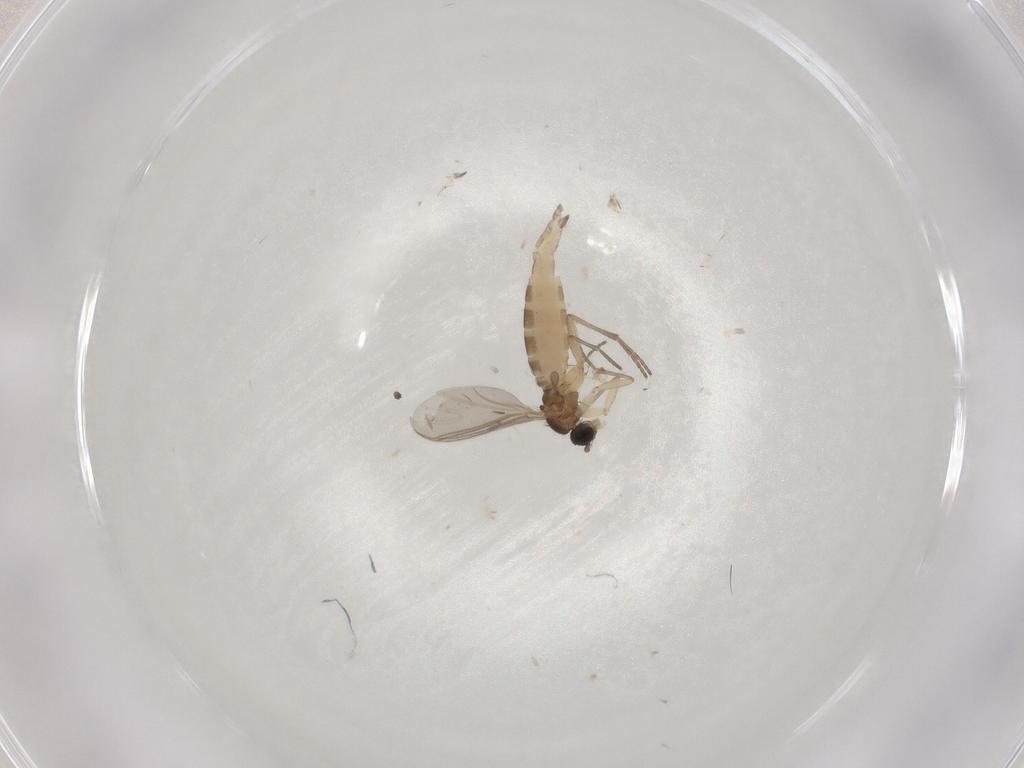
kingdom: Animalia
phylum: Arthropoda
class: Insecta
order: Diptera
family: Sciaridae
